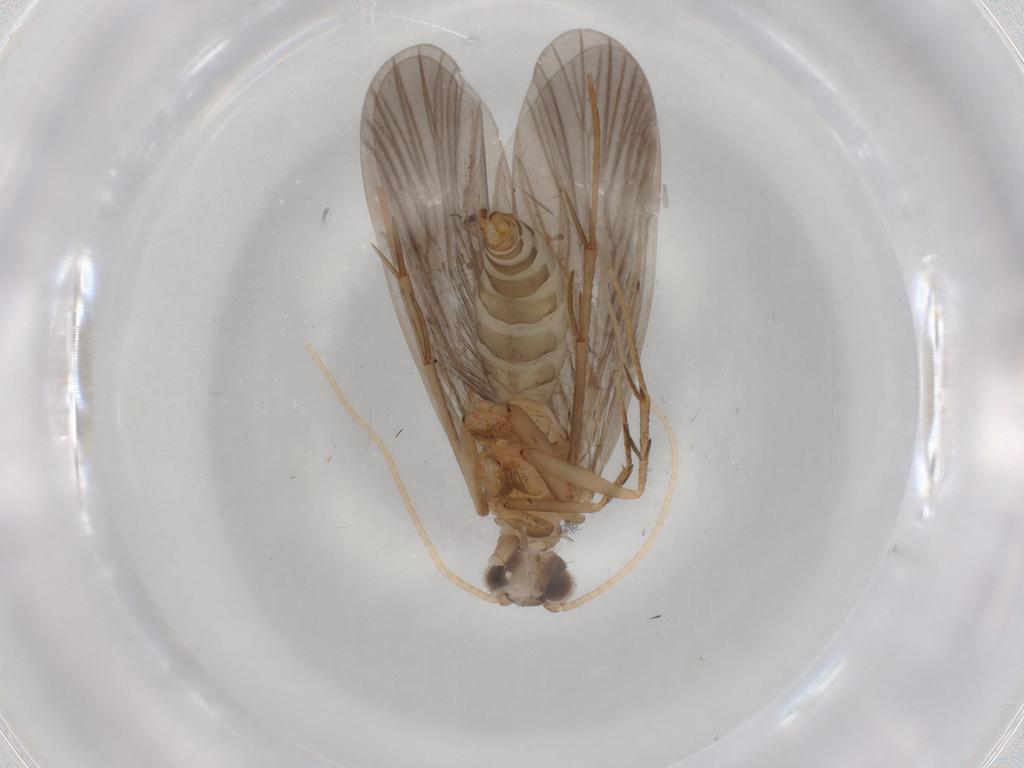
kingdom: Animalia
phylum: Arthropoda
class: Insecta
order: Trichoptera
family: Philopotamidae
